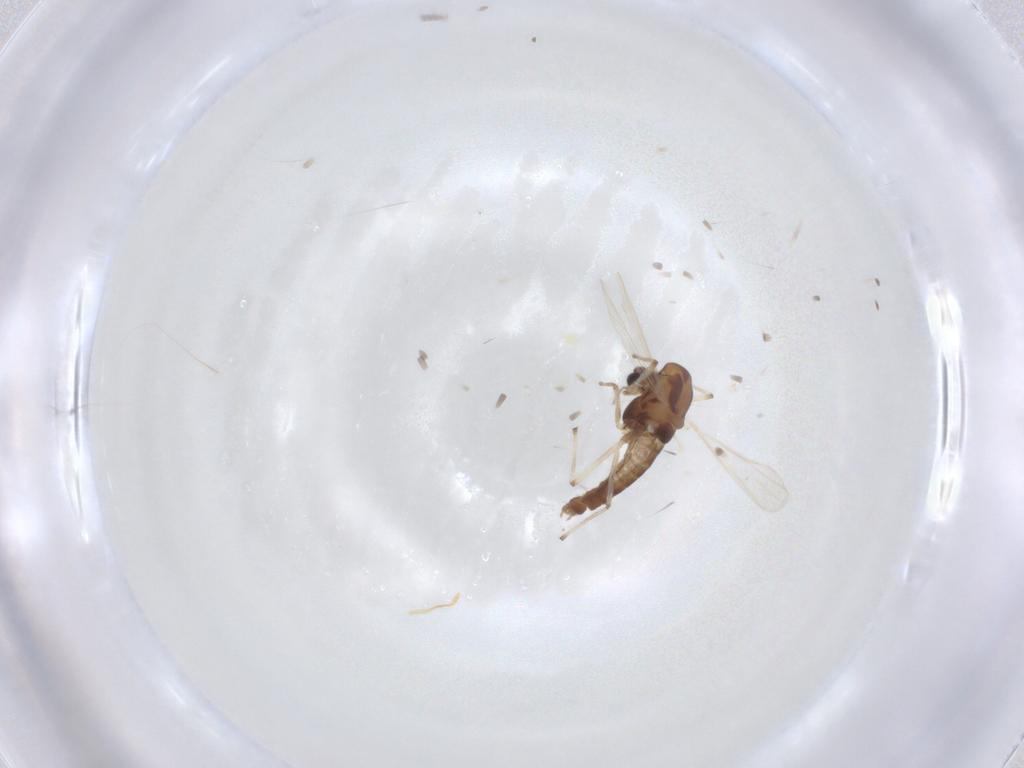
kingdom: Animalia
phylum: Arthropoda
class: Insecta
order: Diptera
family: Chironomidae
